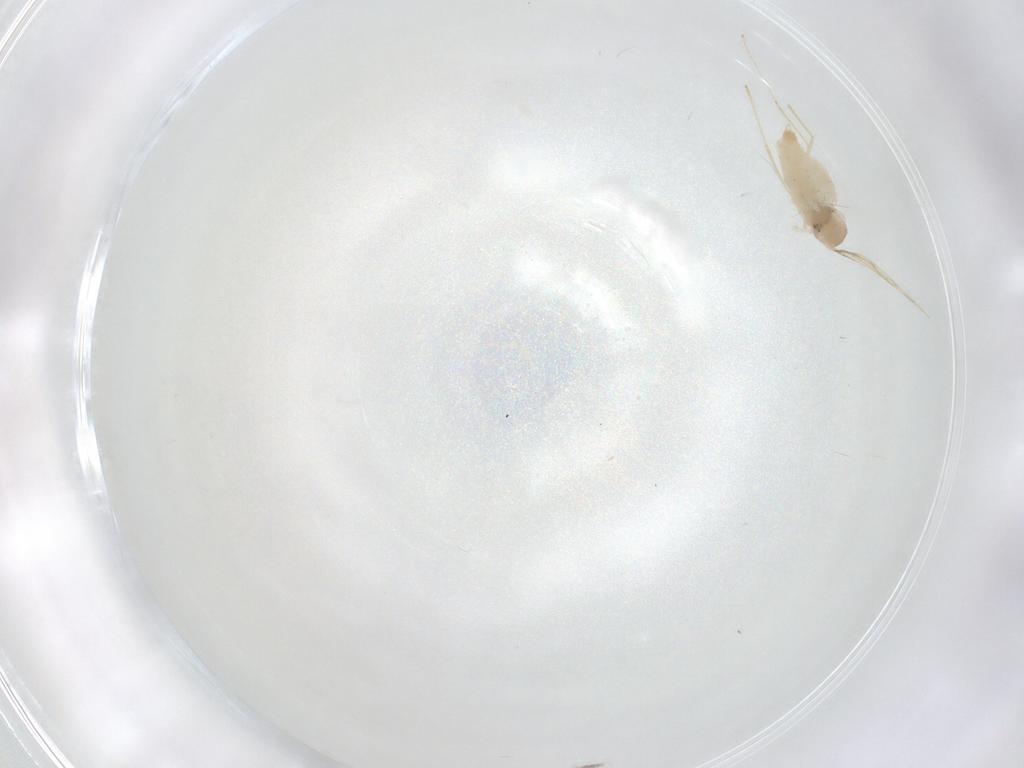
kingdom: Animalia
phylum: Arthropoda
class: Insecta
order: Diptera
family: Cecidomyiidae
